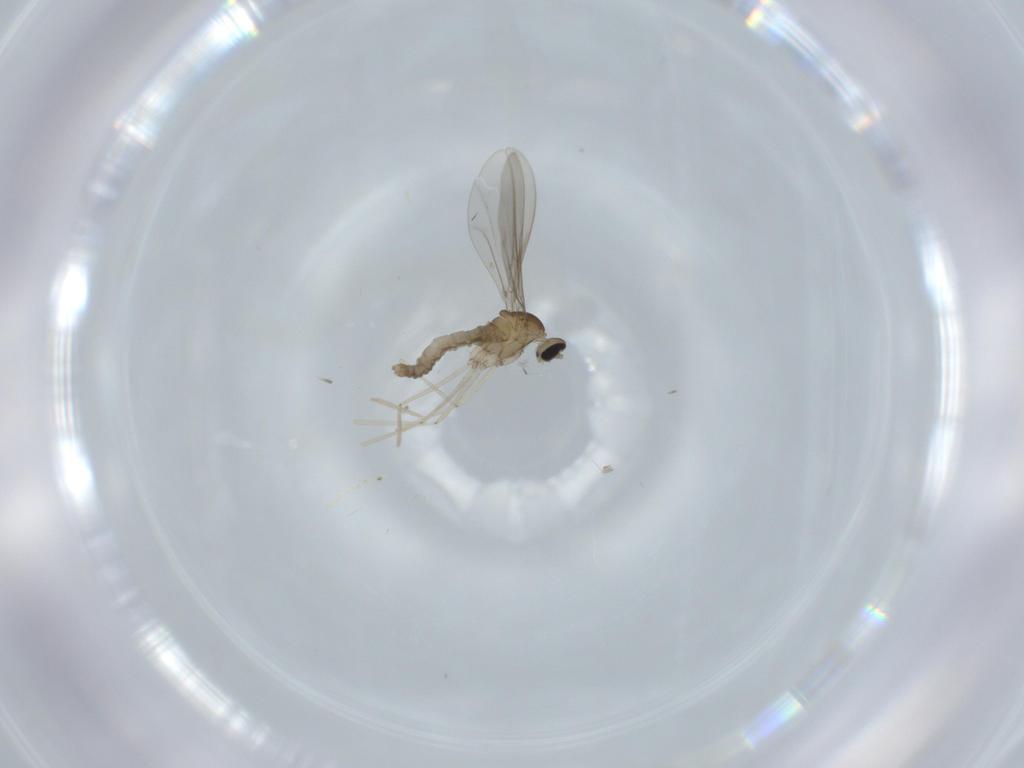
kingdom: Animalia
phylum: Arthropoda
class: Insecta
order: Diptera
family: Cecidomyiidae
